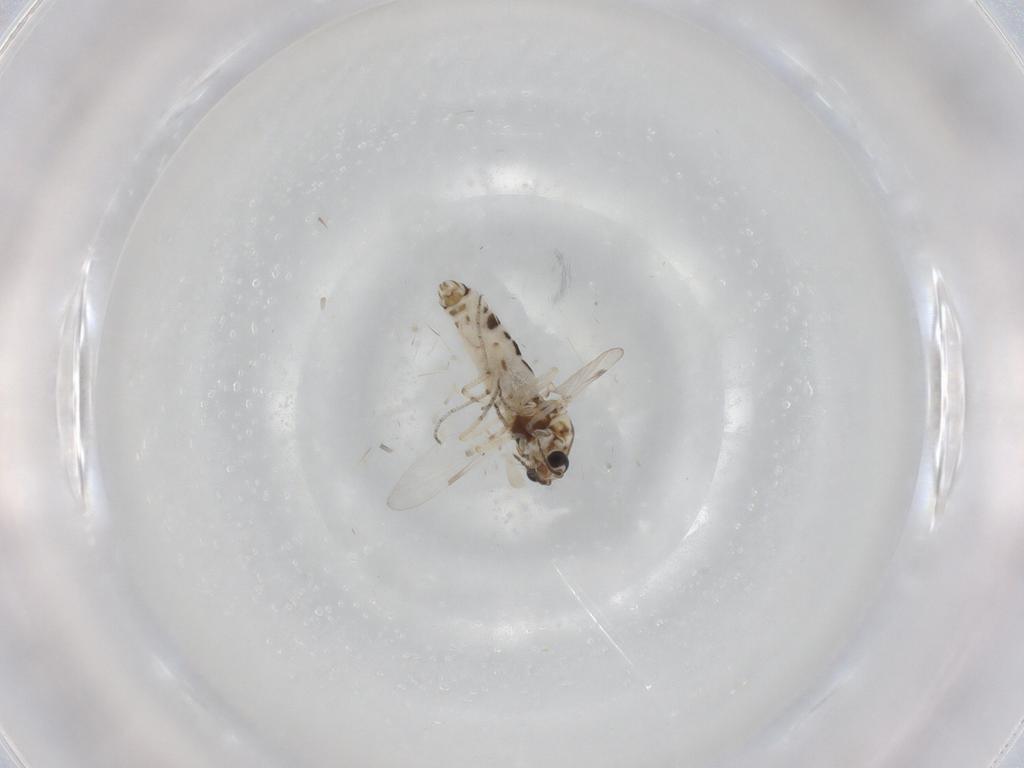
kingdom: Animalia
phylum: Arthropoda
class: Insecta
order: Diptera
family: Ceratopogonidae
